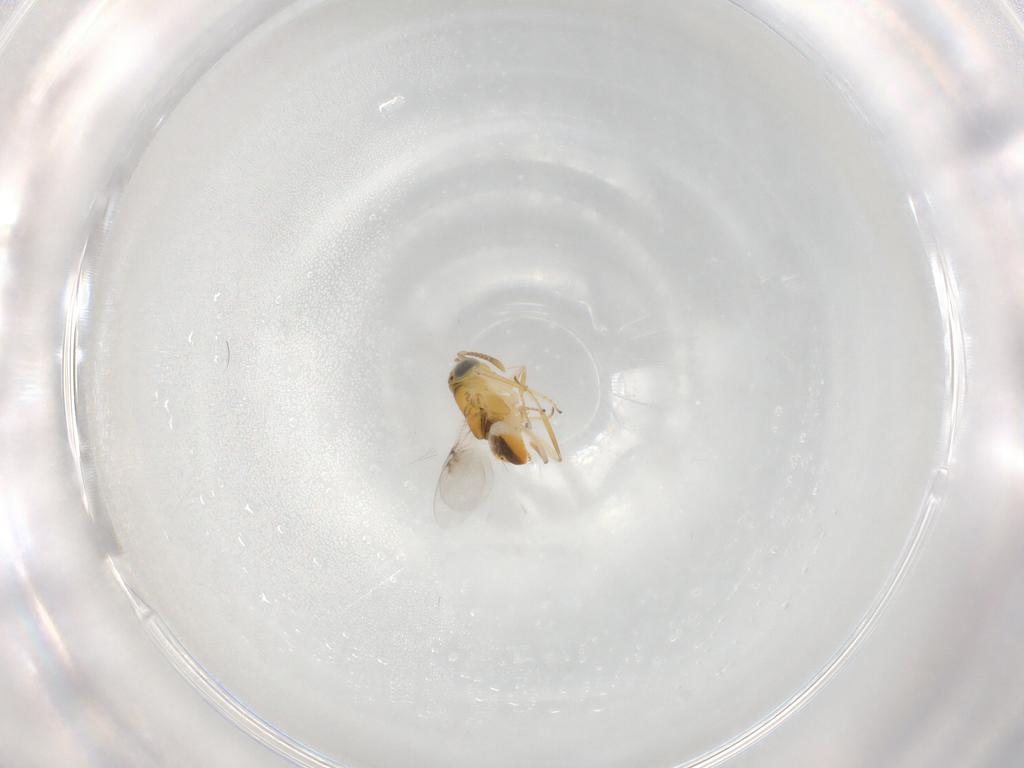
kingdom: Animalia
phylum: Arthropoda
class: Insecta
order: Hymenoptera
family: Encyrtidae
